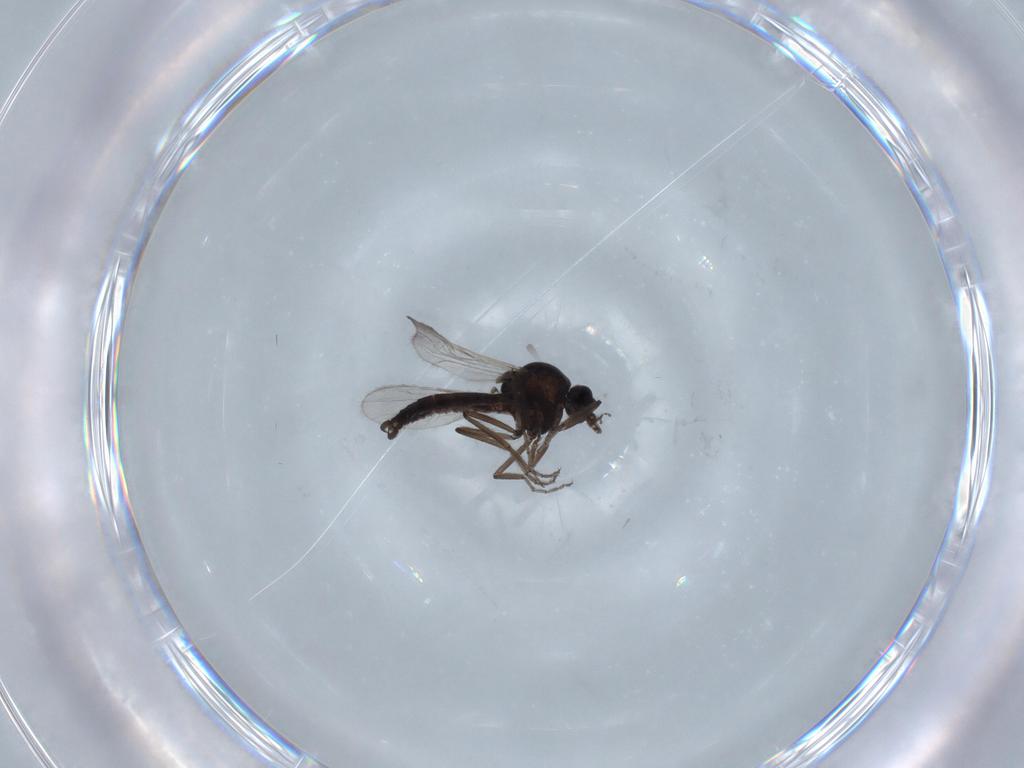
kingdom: Animalia
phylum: Arthropoda
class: Insecta
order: Diptera
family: Ceratopogonidae
